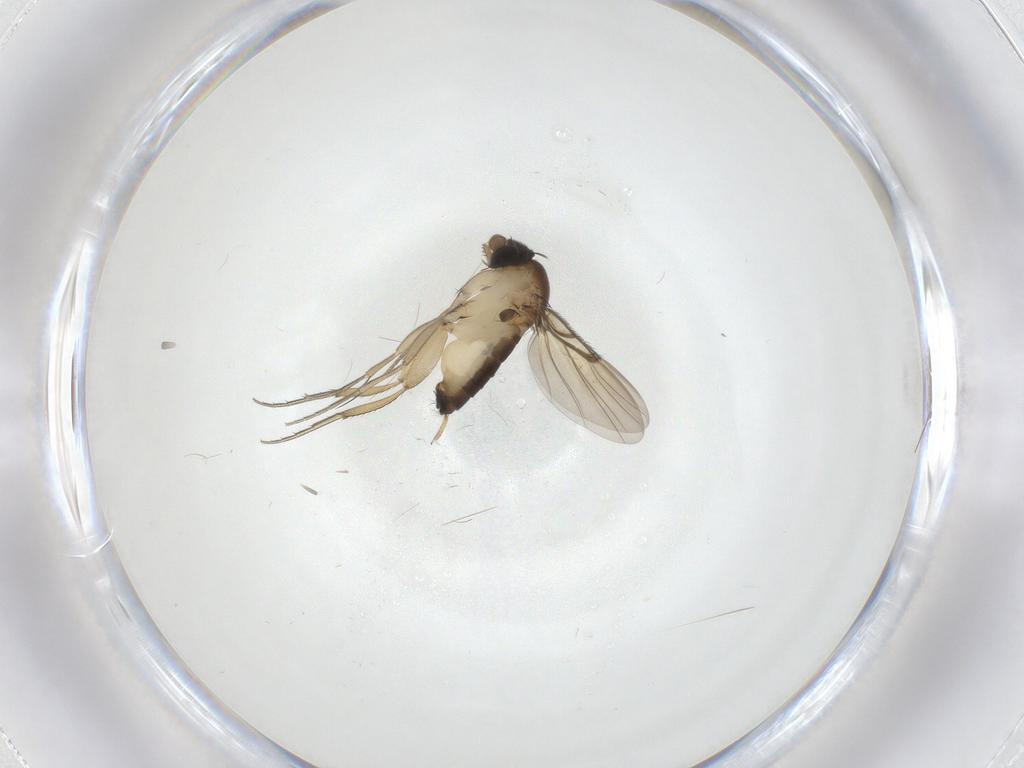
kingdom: Animalia
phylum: Arthropoda
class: Insecta
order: Diptera
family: Phoridae
